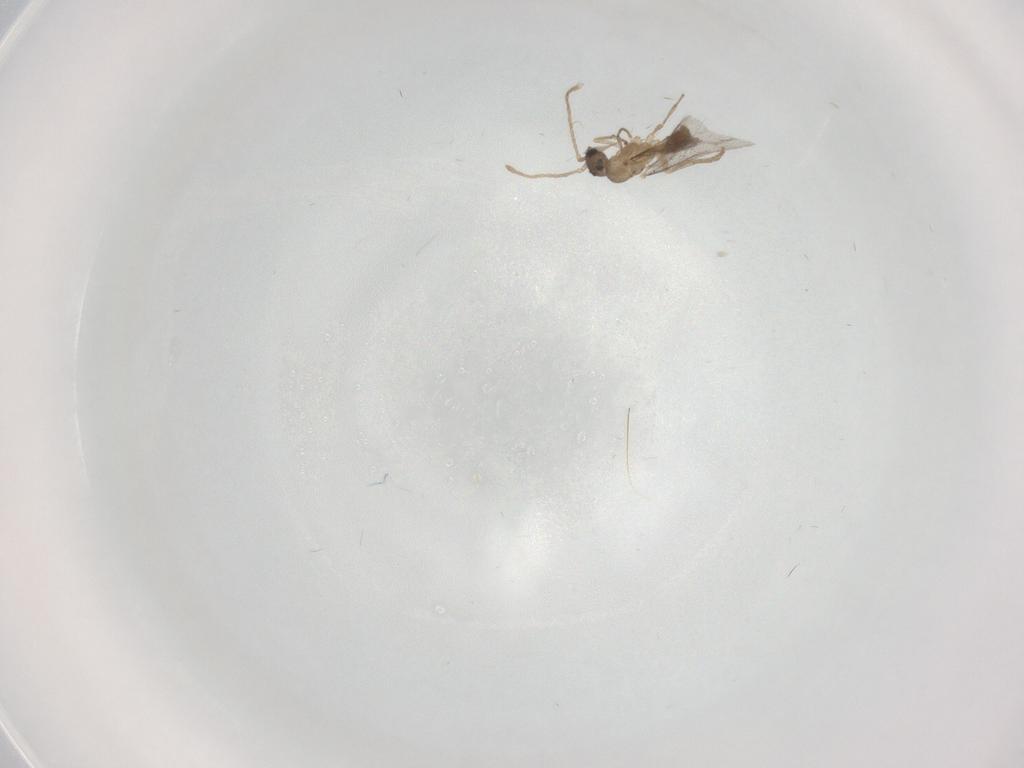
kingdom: Animalia
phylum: Arthropoda
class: Insecta
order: Hymenoptera
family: Formicidae
